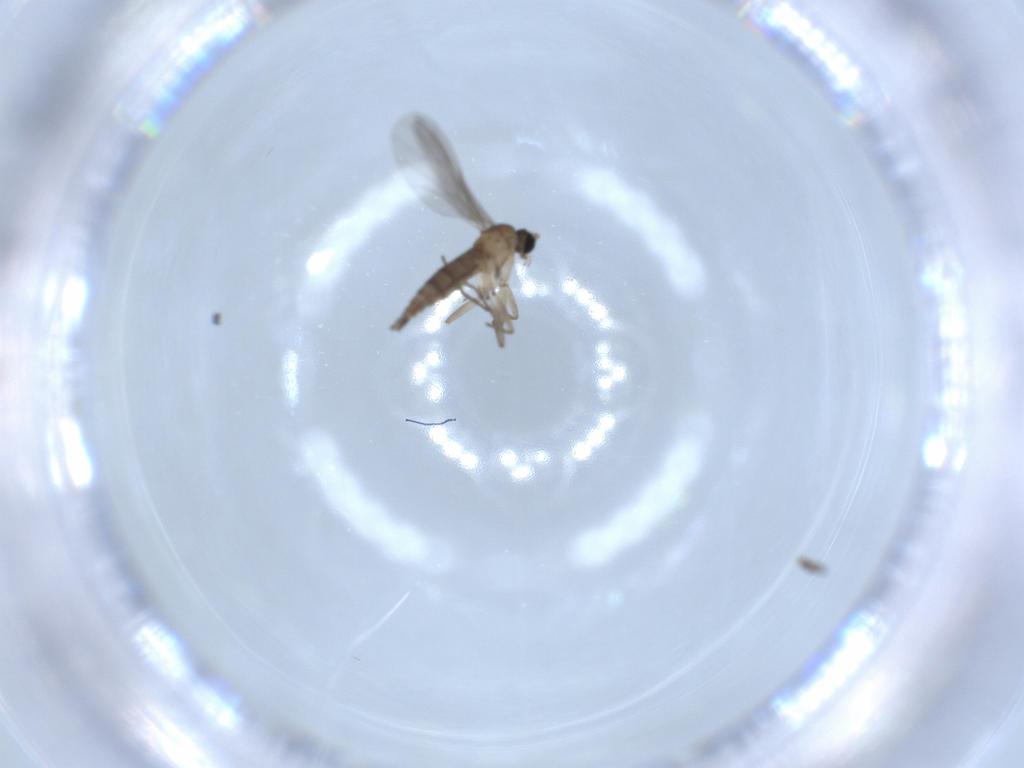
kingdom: Animalia
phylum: Arthropoda
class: Insecta
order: Diptera
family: Sciaridae
